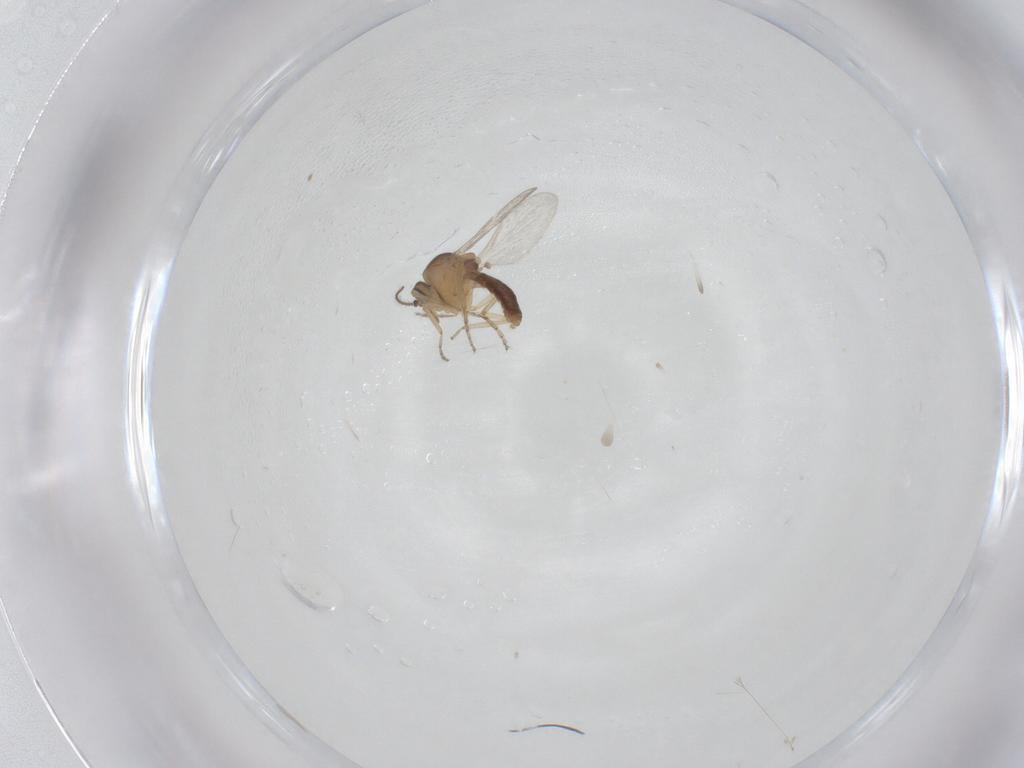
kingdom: Animalia
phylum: Arthropoda
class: Insecta
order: Diptera
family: Ceratopogonidae
